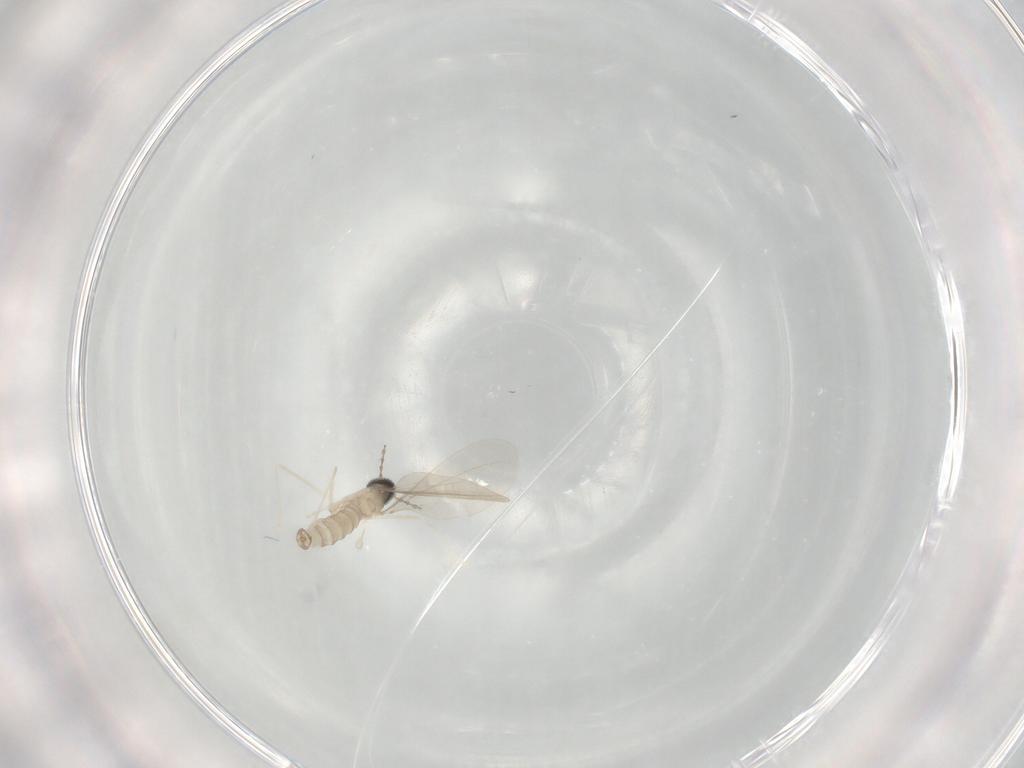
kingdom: Animalia
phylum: Arthropoda
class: Insecta
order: Diptera
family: Cecidomyiidae
